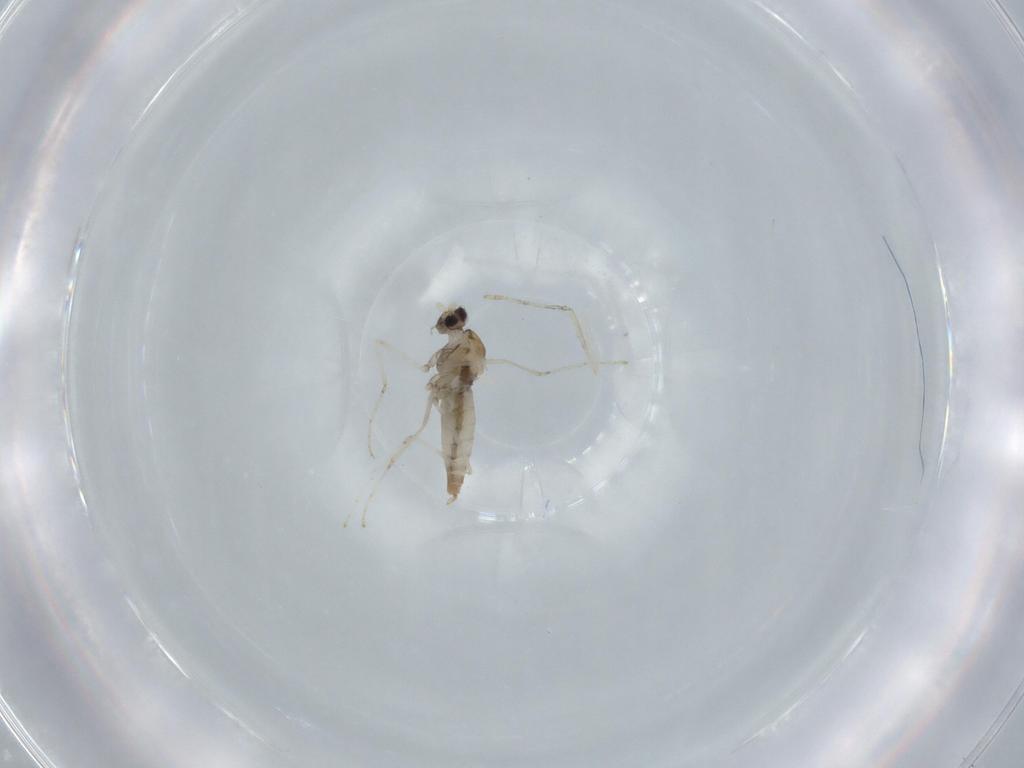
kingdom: Animalia
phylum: Arthropoda
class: Insecta
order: Diptera
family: Cecidomyiidae
